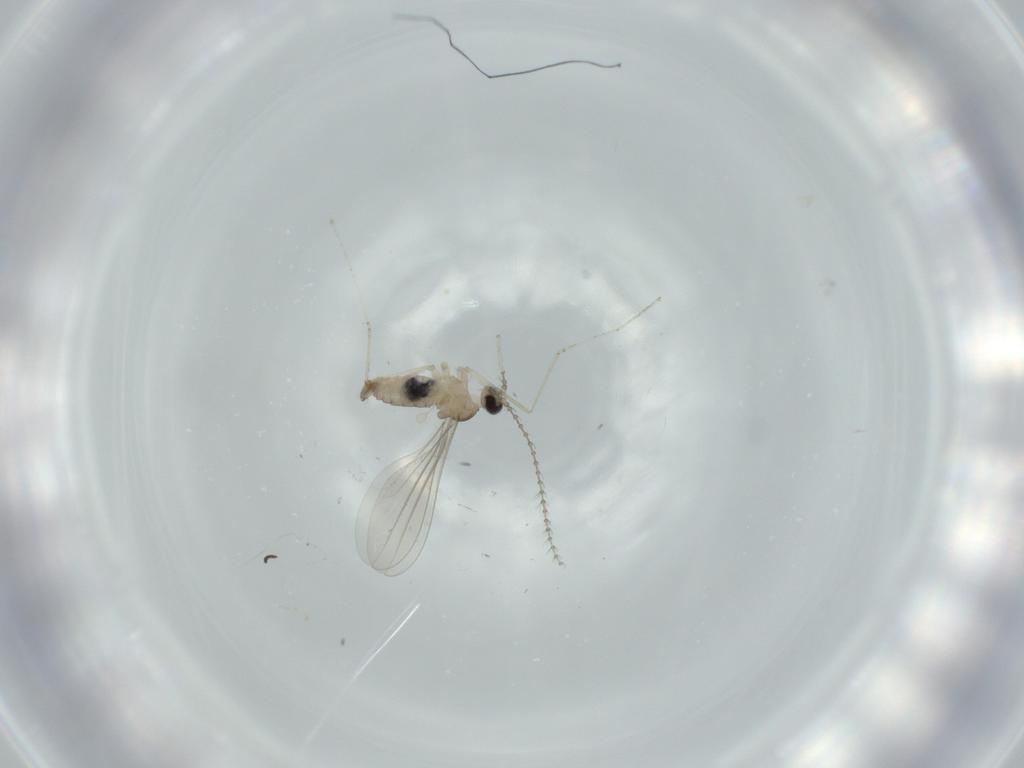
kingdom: Animalia
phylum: Arthropoda
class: Insecta
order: Diptera
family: Cecidomyiidae
